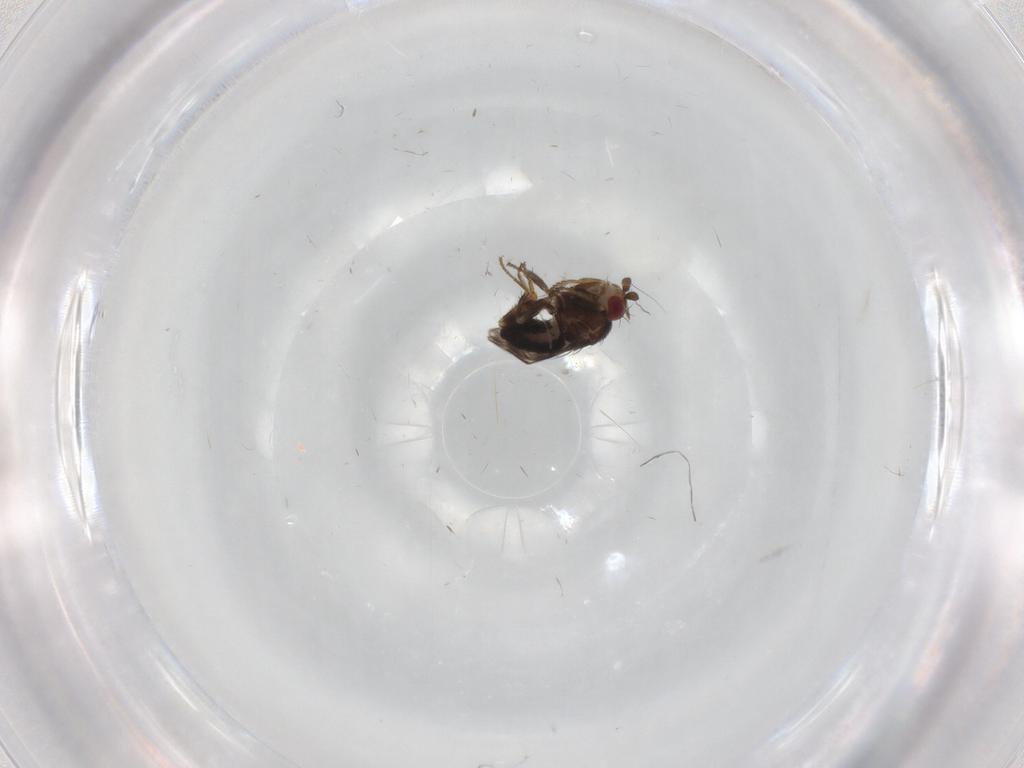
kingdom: Animalia
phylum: Arthropoda
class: Insecta
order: Diptera
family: Sphaeroceridae
